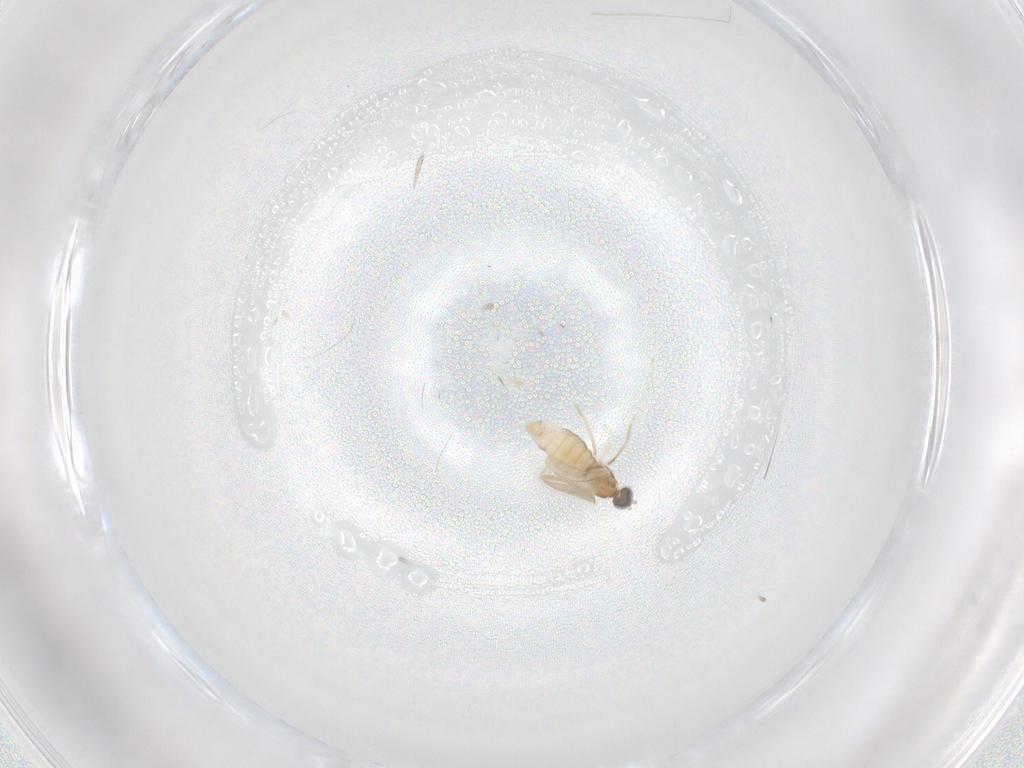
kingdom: Animalia
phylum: Arthropoda
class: Insecta
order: Diptera
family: Cecidomyiidae
